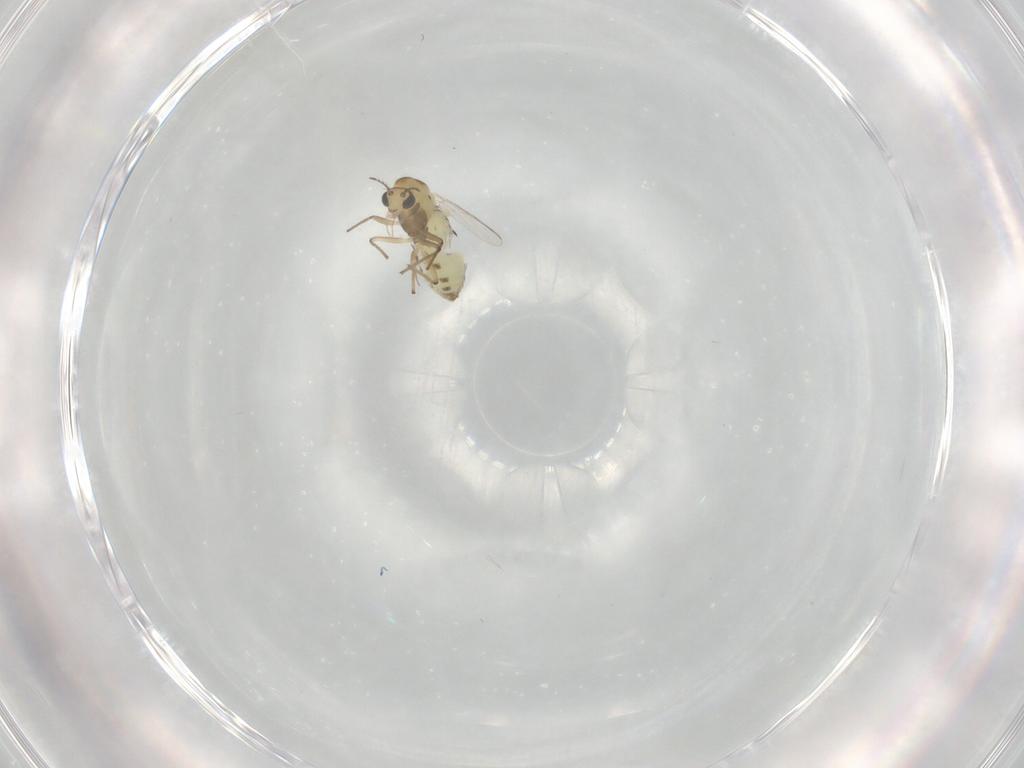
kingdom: Animalia
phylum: Arthropoda
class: Insecta
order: Diptera
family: Chironomidae
